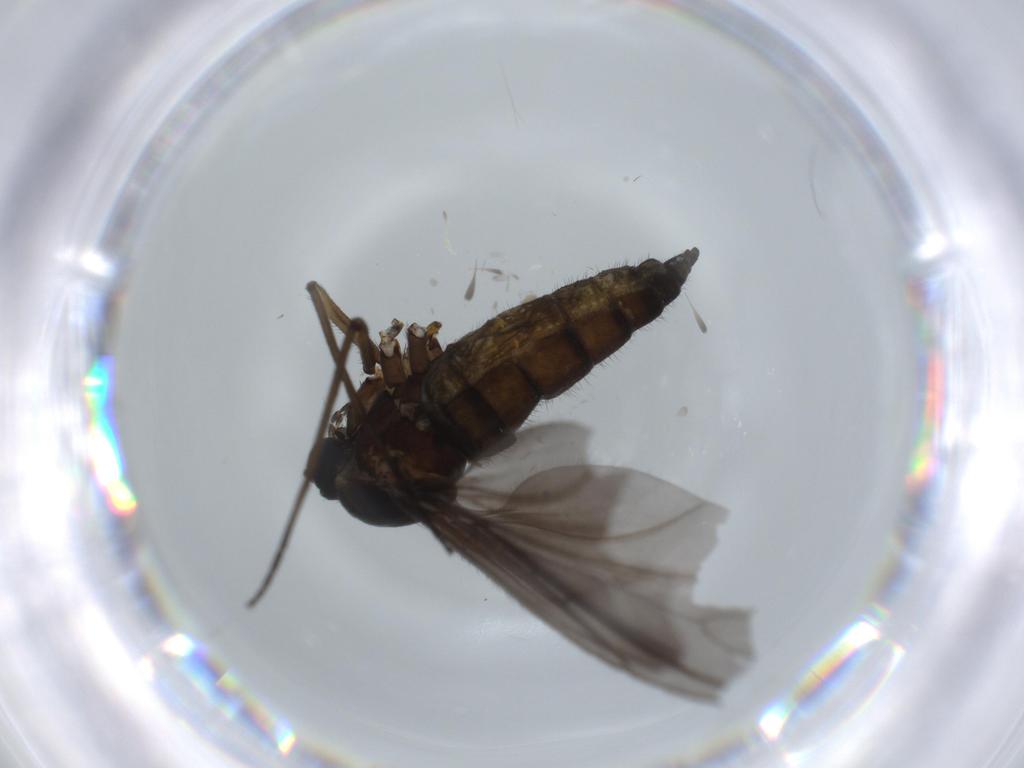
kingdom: Animalia
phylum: Arthropoda
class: Insecta
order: Diptera
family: Sciaridae
